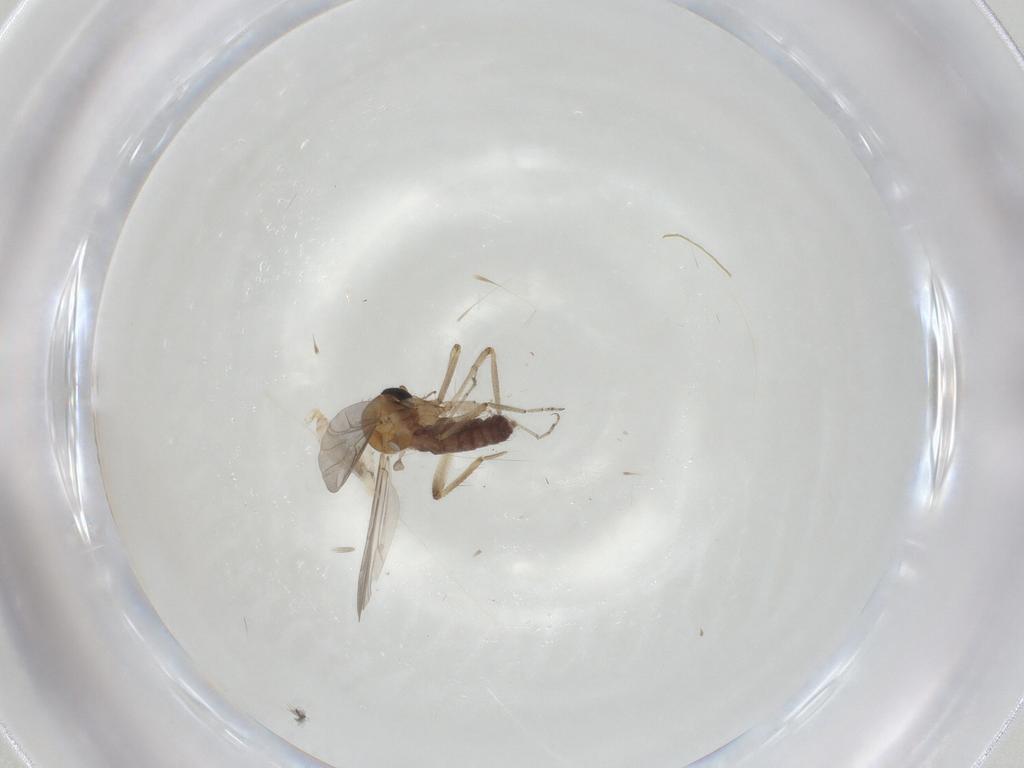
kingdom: Animalia
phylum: Arthropoda
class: Insecta
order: Diptera
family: Ceratopogonidae
